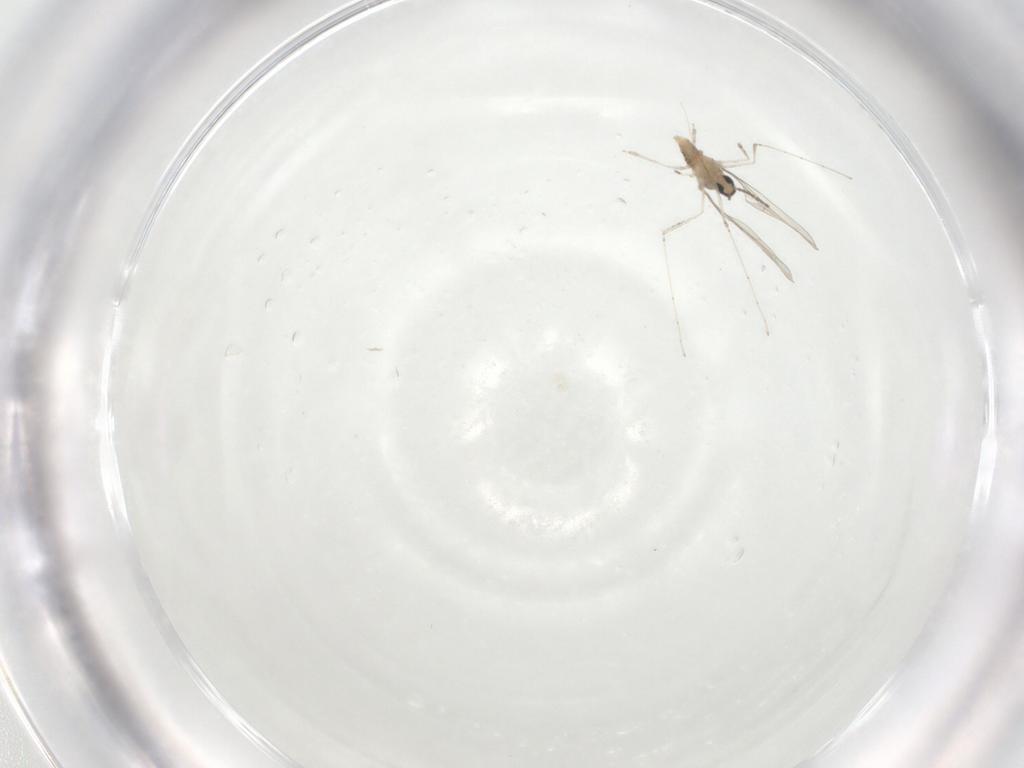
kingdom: Animalia
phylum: Arthropoda
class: Insecta
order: Diptera
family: Cecidomyiidae
